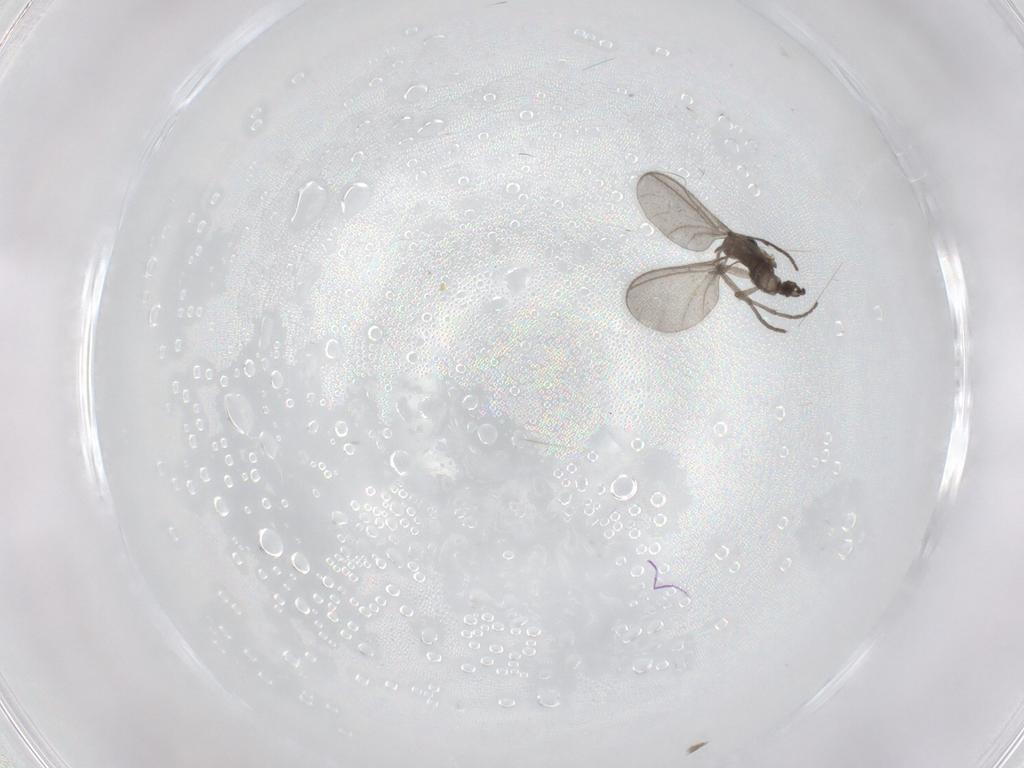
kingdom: Animalia
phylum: Arthropoda
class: Insecta
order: Diptera
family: Sciaridae
